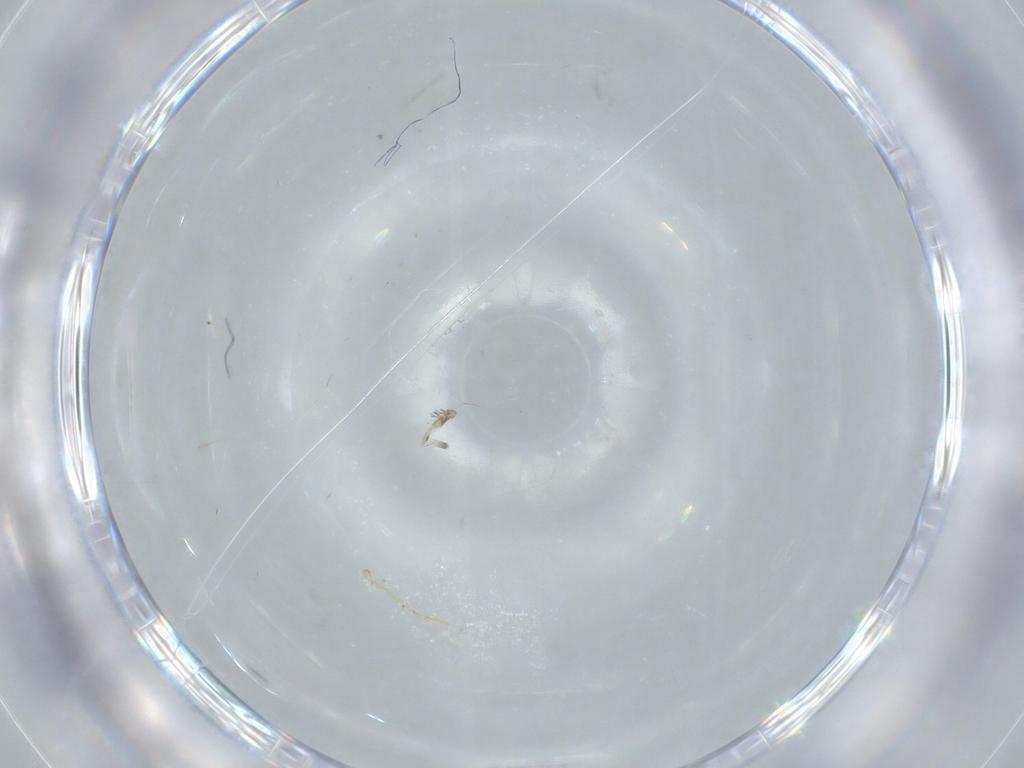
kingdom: Animalia
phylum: Arthropoda
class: Insecta
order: Hymenoptera
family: Ceraphronidae
